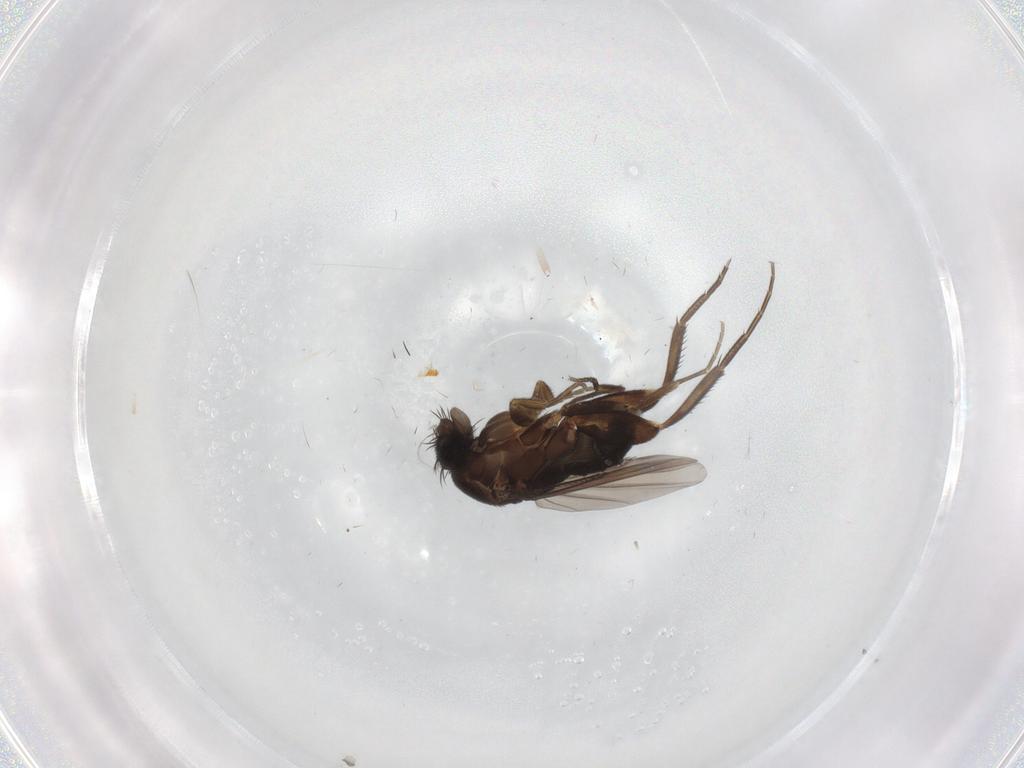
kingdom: Animalia
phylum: Arthropoda
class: Insecta
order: Diptera
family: Phoridae
